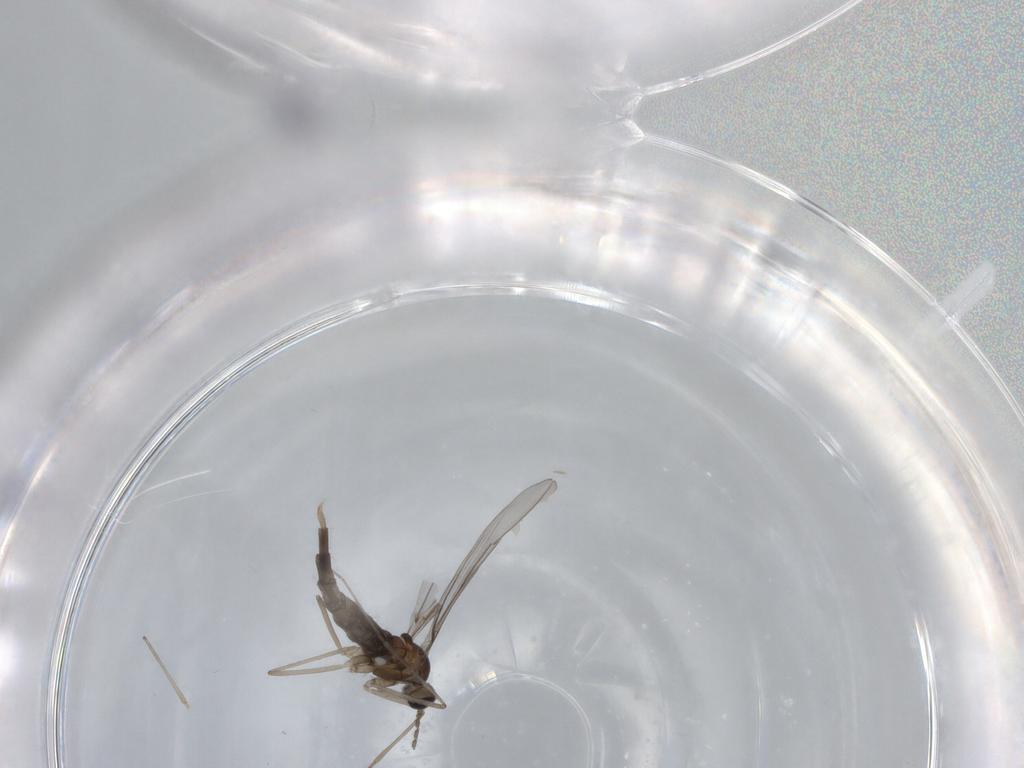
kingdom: Animalia
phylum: Arthropoda
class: Insecta
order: Diptera
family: Cecidomyiidae
